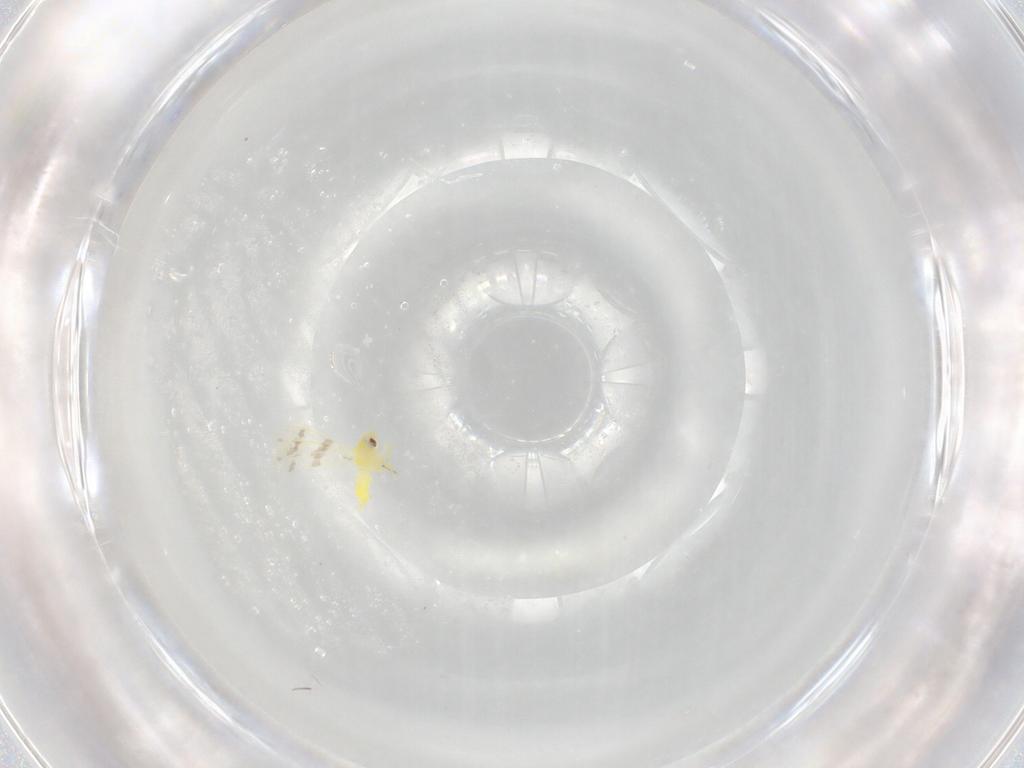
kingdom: Animalia
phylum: Arthropoda
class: Insecta
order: Hemiptera
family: Aleyrodidae
